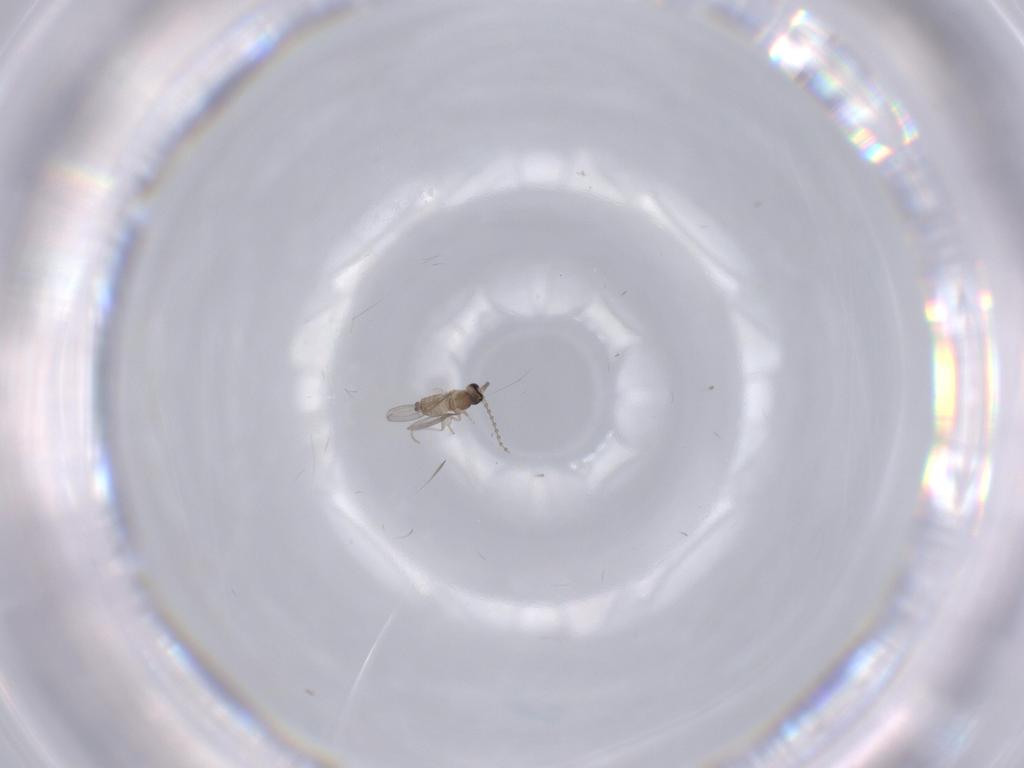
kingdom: Animalia
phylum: Arthropoda
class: Insecta
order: Diptera
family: Cecidomyiidae
